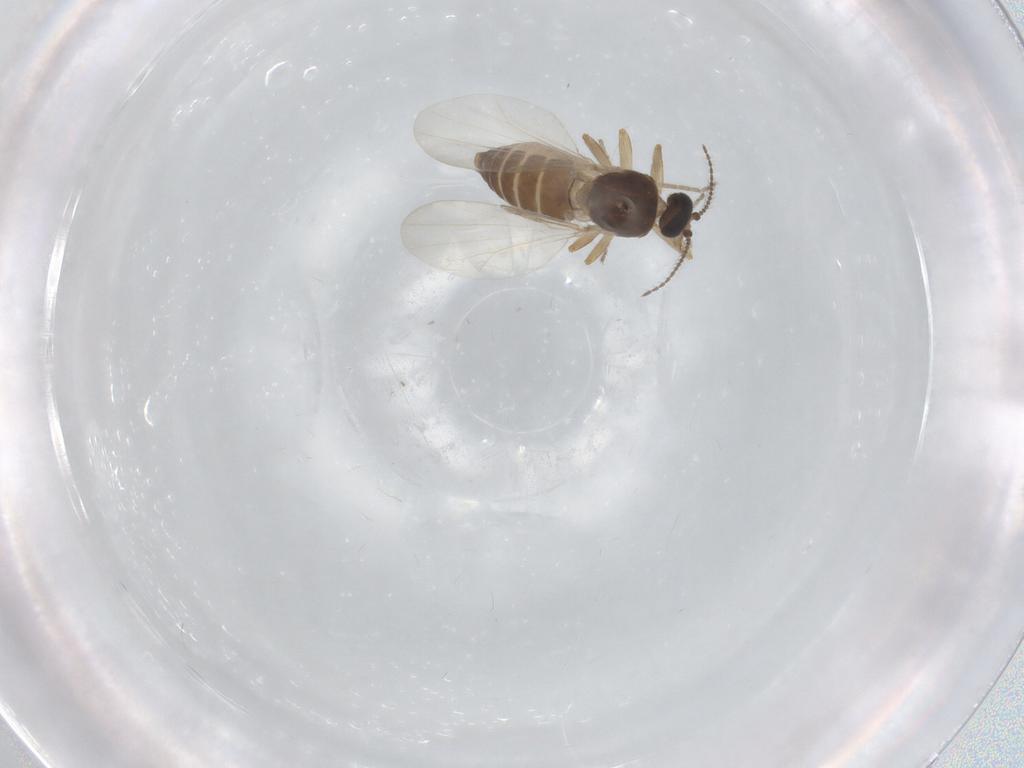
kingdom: Animalia
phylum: Arthropoda
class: Insecta
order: Diptera
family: Ceratopogonidae
